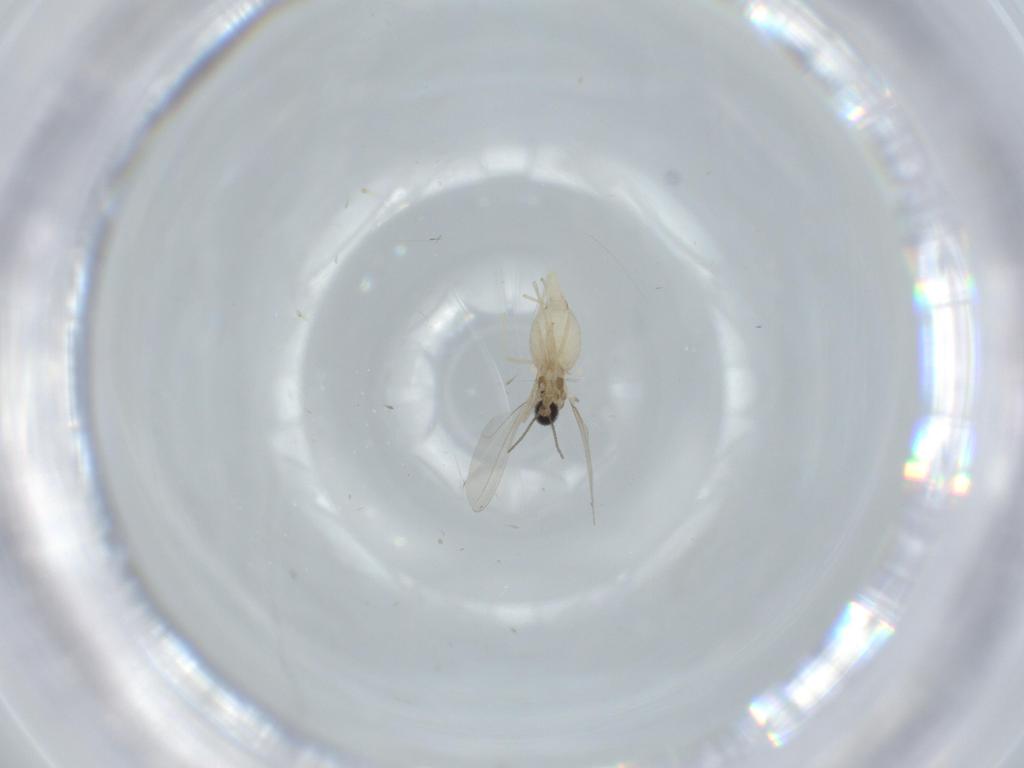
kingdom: Animalia
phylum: Arthropoda
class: Insecta
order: Diptera
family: Cecidomyiidae
